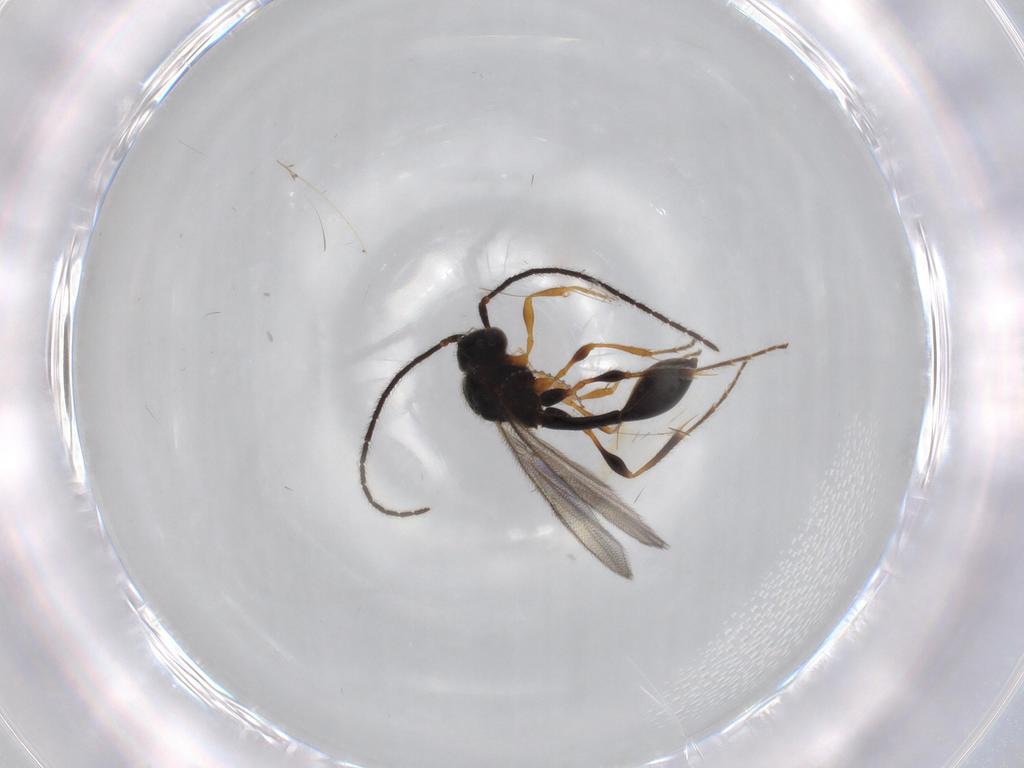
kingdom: Animalia
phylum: Arthropoda
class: Insecta
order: Hymenoptera
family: Diapriidae
